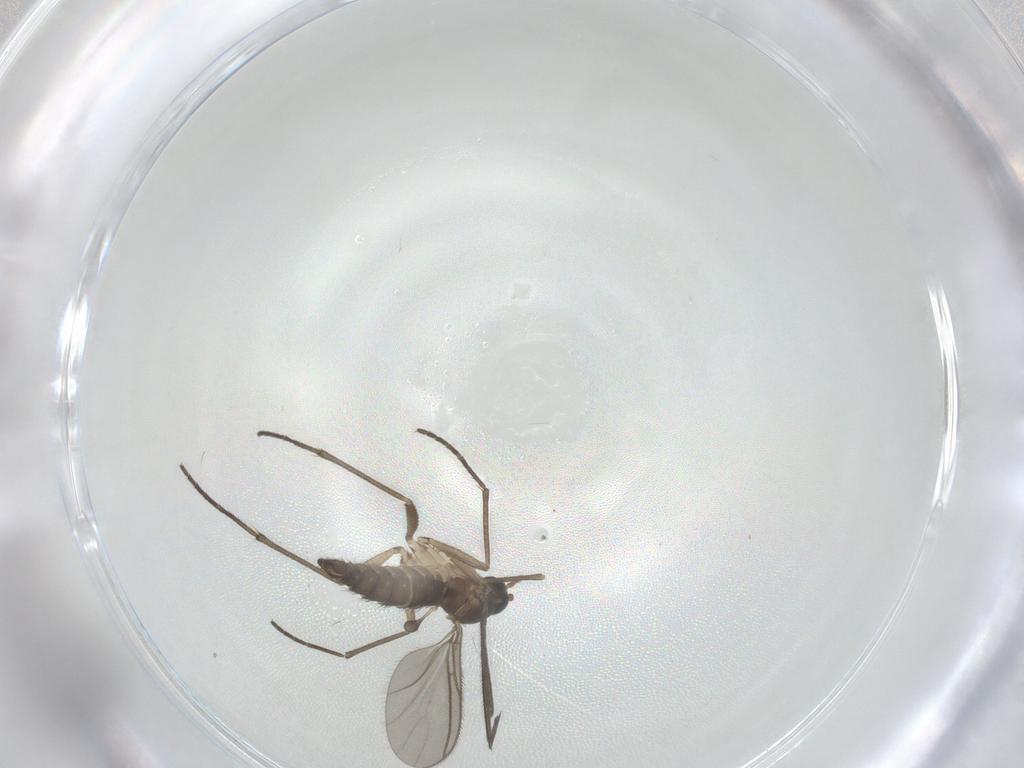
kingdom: Animalia
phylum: Arthropoda
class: Insecta
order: Diptera
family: Sciaridae
